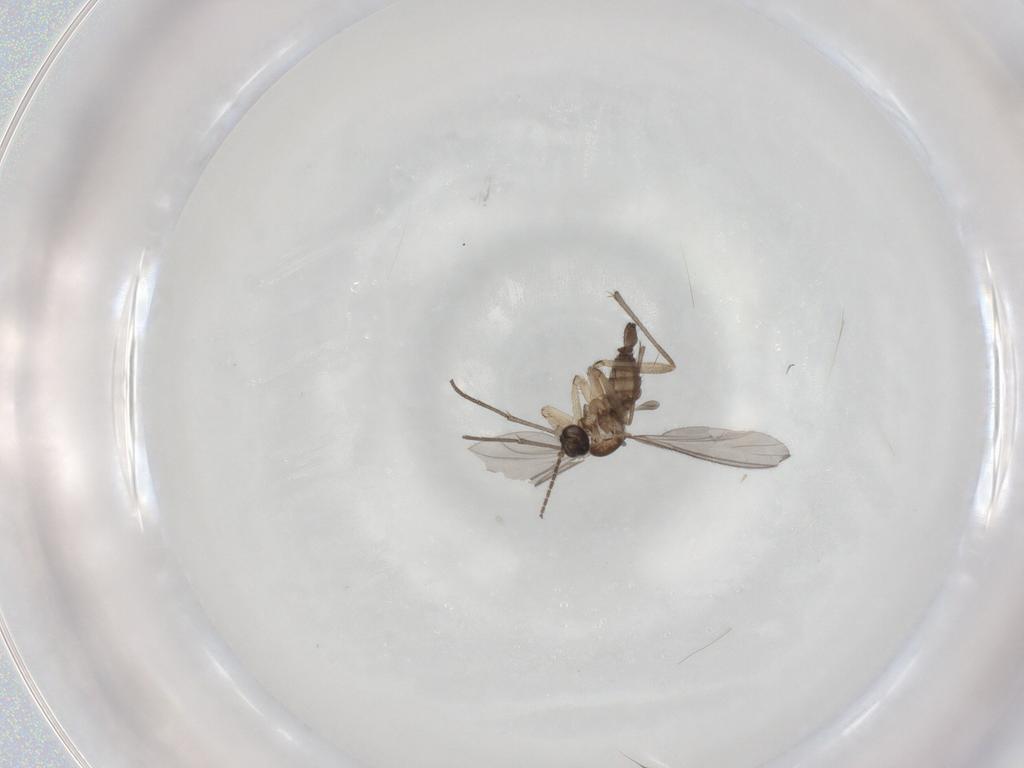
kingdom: Animalia
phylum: Arthropoda
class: Insecta
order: Diptera
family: Sciaridae
